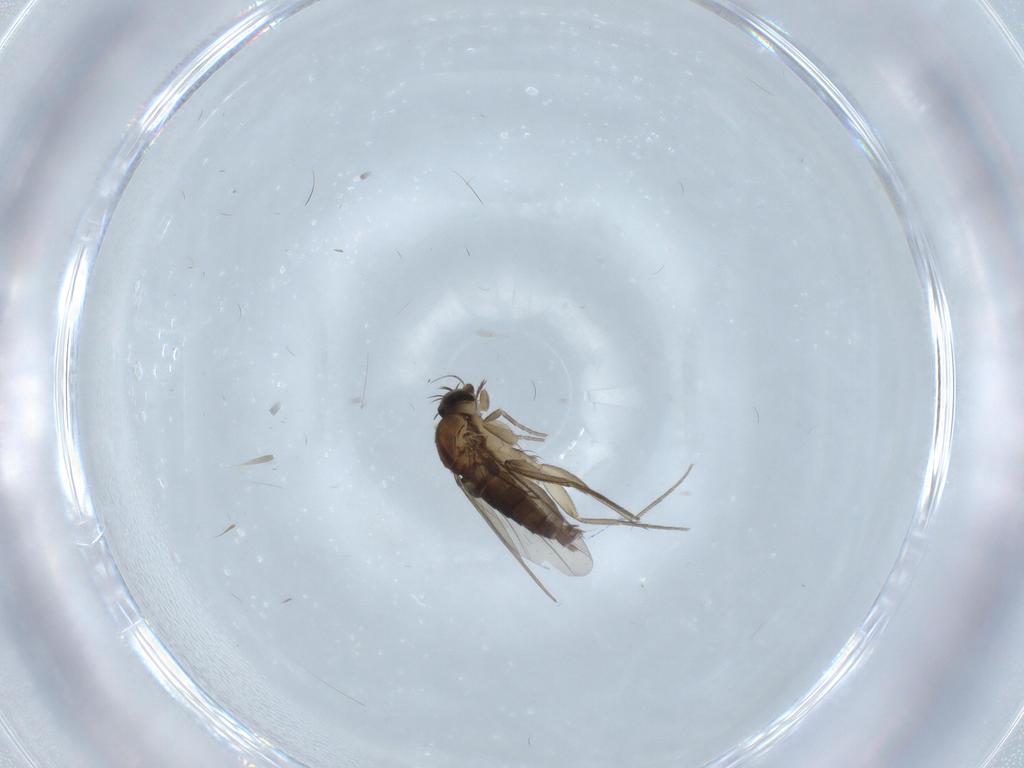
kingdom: Animalia
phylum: Arthropoda
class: Insecta
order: Diptera
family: Phoridae
